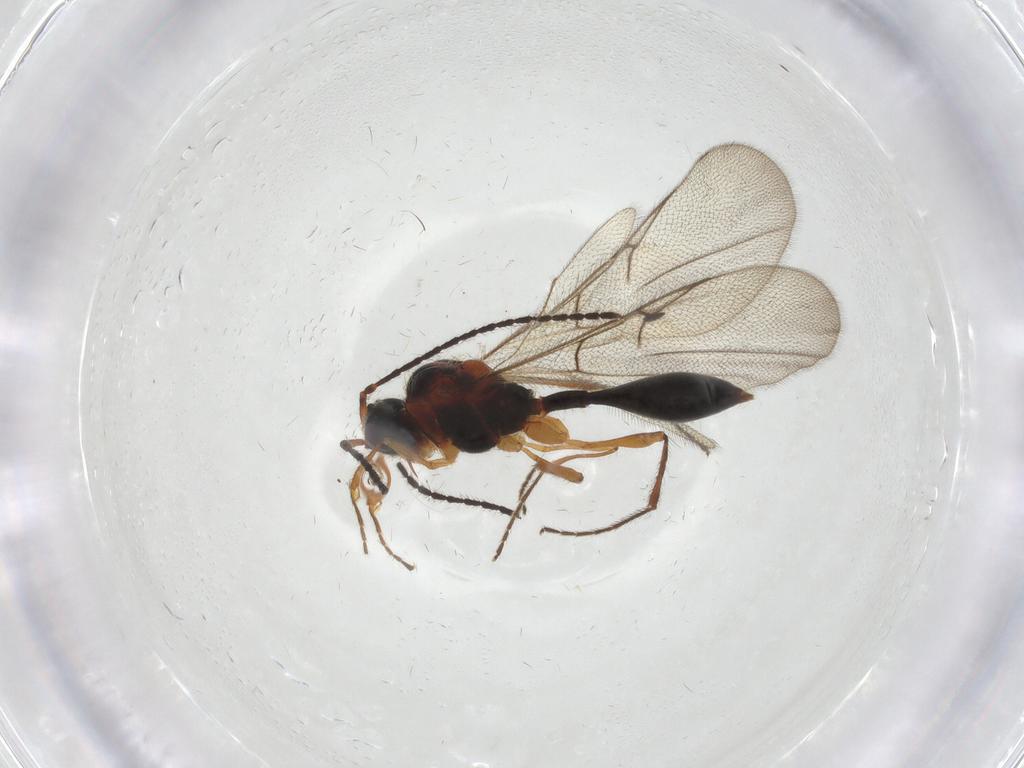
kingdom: Animalia
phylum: Arthropoda
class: Insecta
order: Hymenoptera
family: Diapriidae
